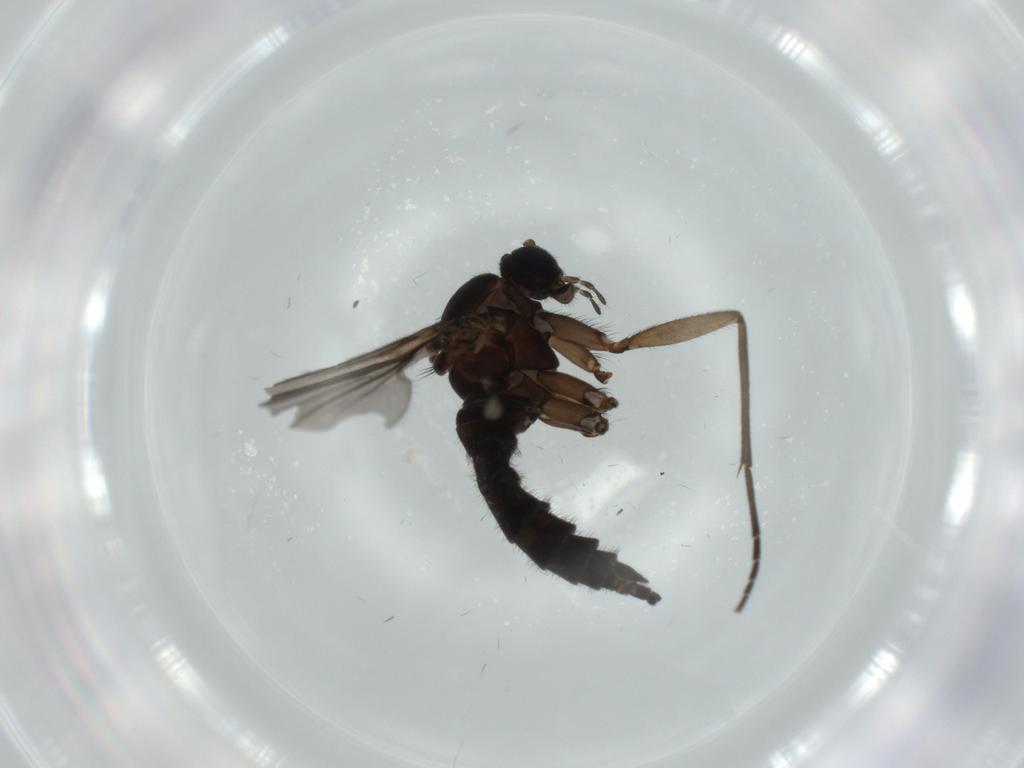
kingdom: Animalia
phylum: Arthropoda
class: Insecta
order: Diptera
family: Sciaridae
